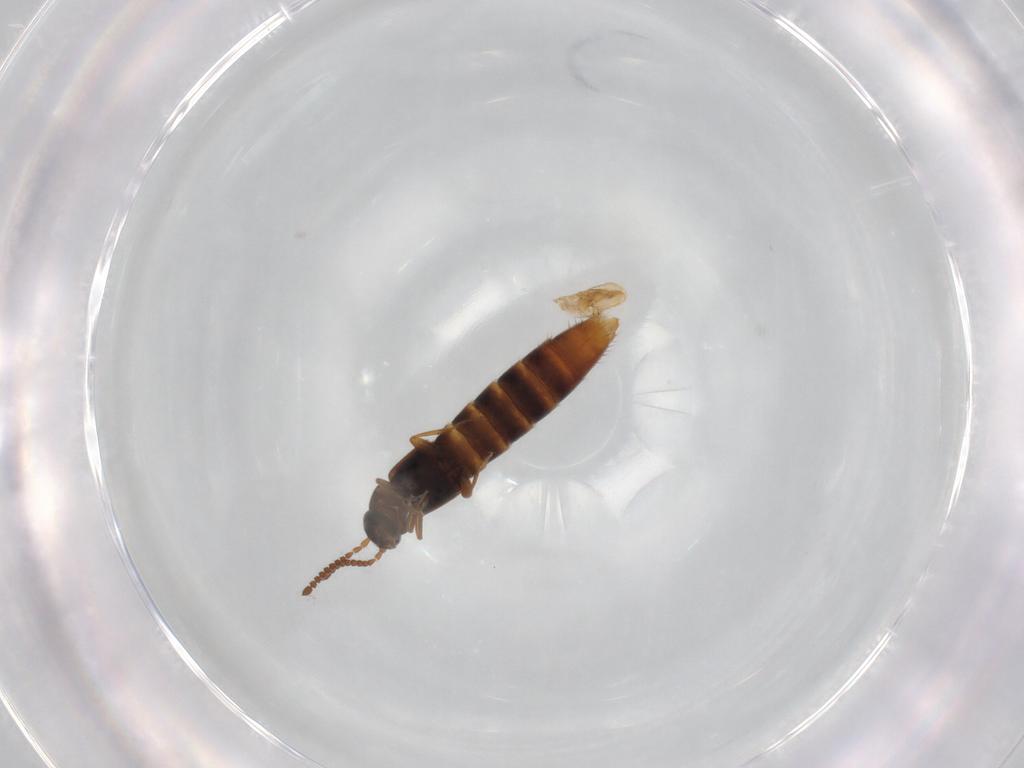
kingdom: Animalia
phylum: Arthropoda
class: Insecta
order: Coleoptera
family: Staphylinidae
